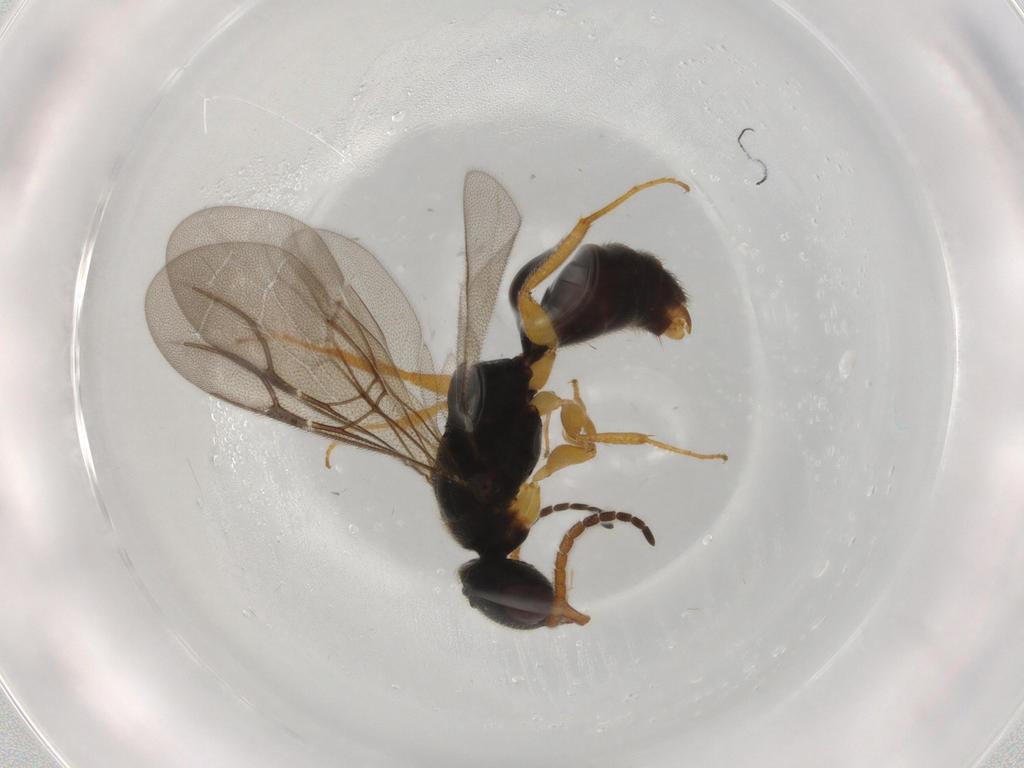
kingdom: Animalia
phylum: Arthropoda
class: Insecta
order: Hymenoptera
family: Bethylidae
